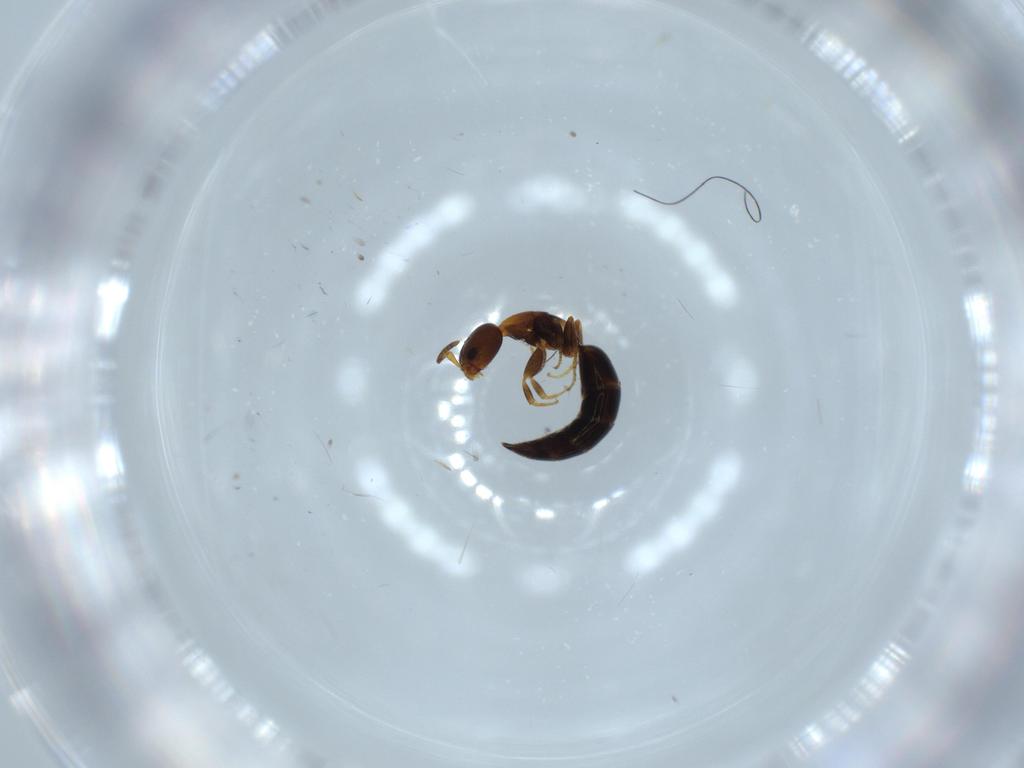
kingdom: Animalia
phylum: Arthropoda
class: Insecta
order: Hymenoptera
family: Bethylidae
